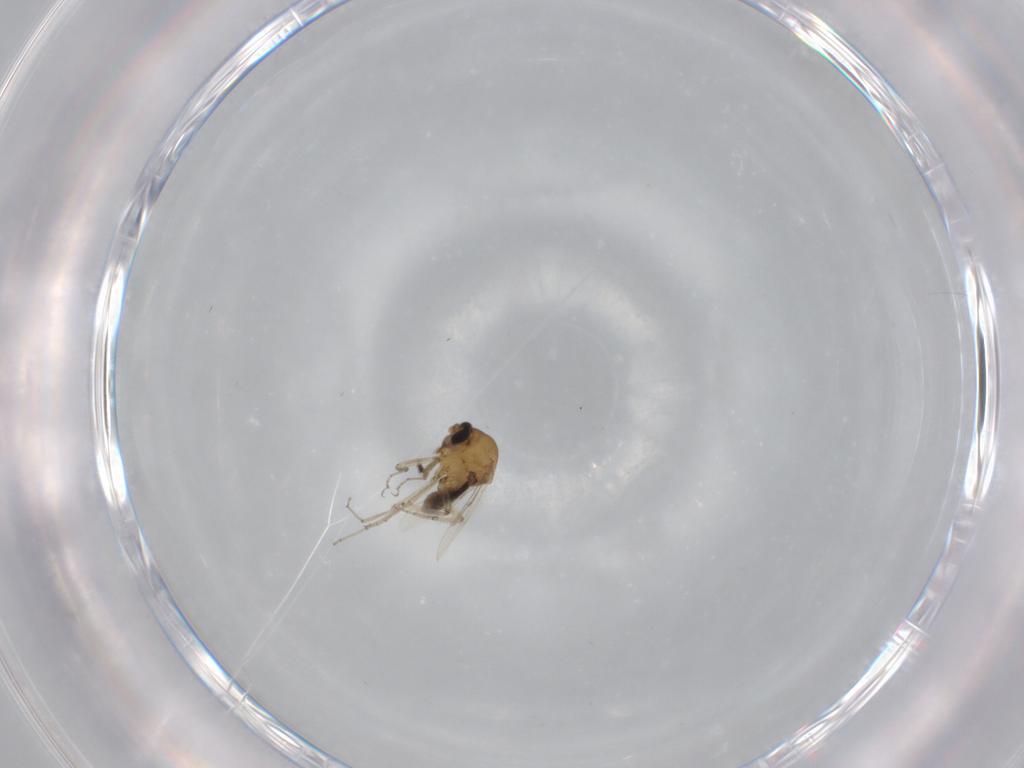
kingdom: Animalia
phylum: Arthropoda
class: Insecta
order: Diptera
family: Ceratopogonidae
